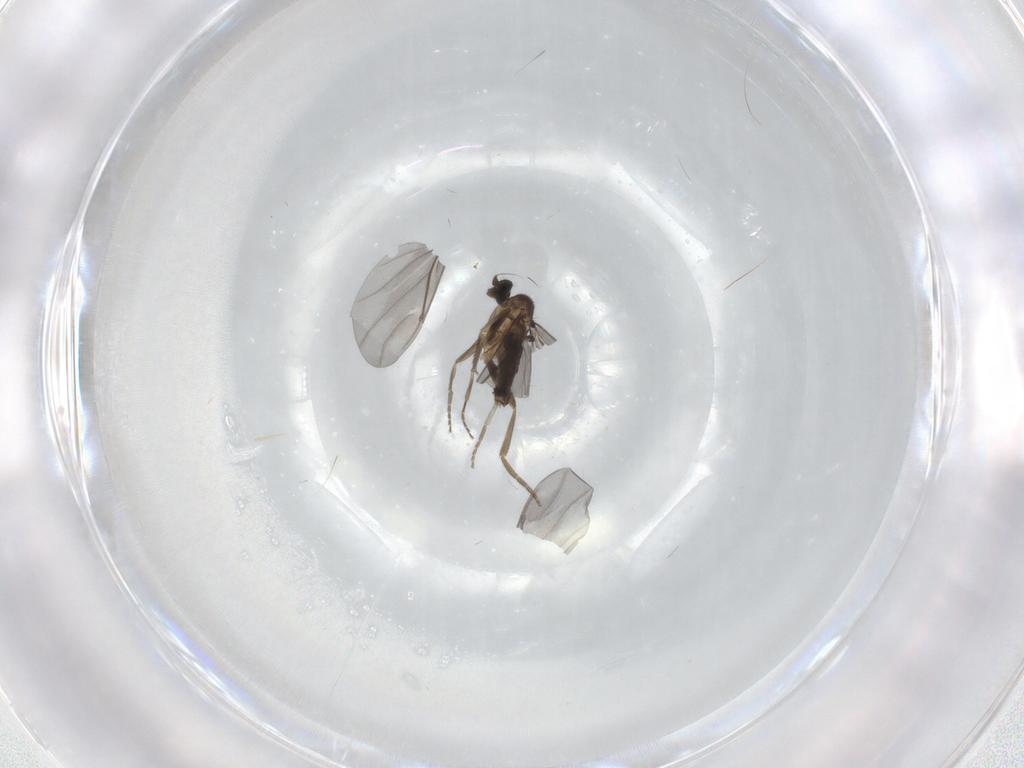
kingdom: Animalia
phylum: Arthropoda
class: Insecta
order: Diptera
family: Phoridae
